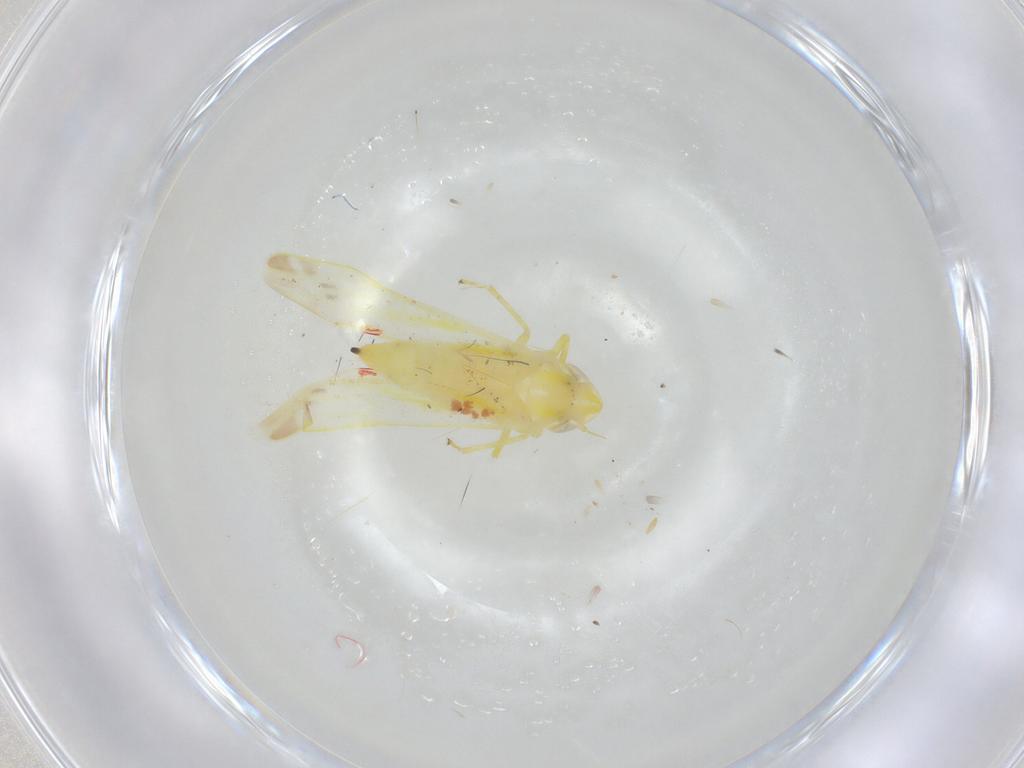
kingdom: Animalia
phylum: Arthropoda
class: Insecta
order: Hemiptera
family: Cicadellidae
